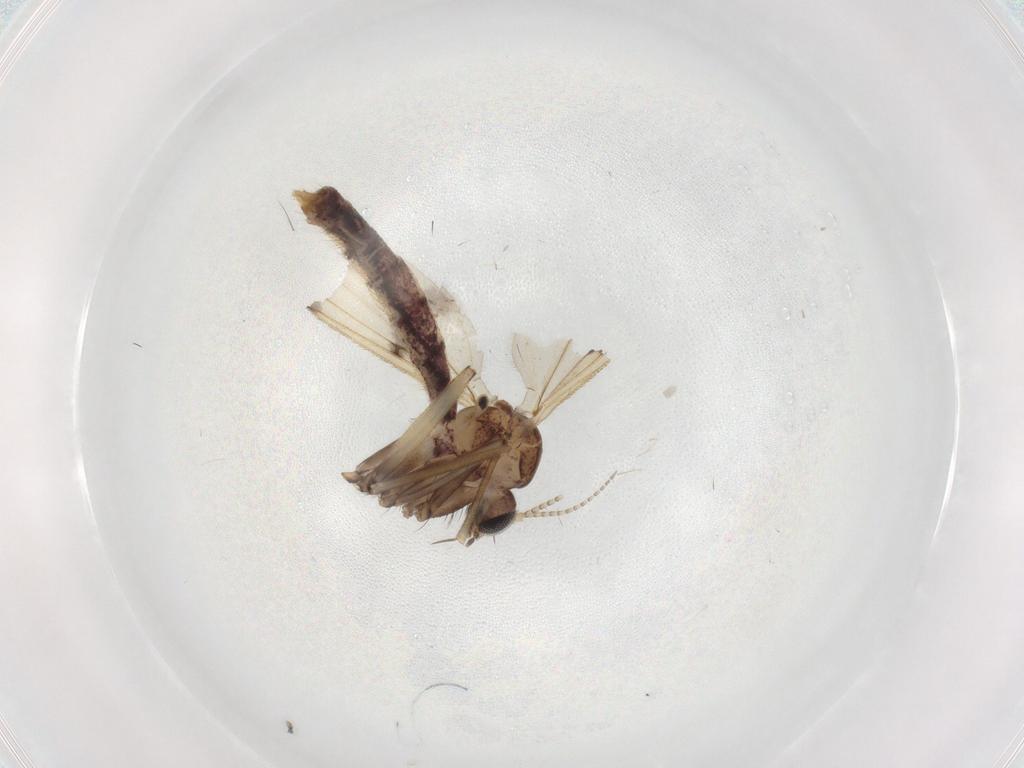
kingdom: Animalia
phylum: Arthropoda
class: Insecta
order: Diptera
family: Mycetophilidae
